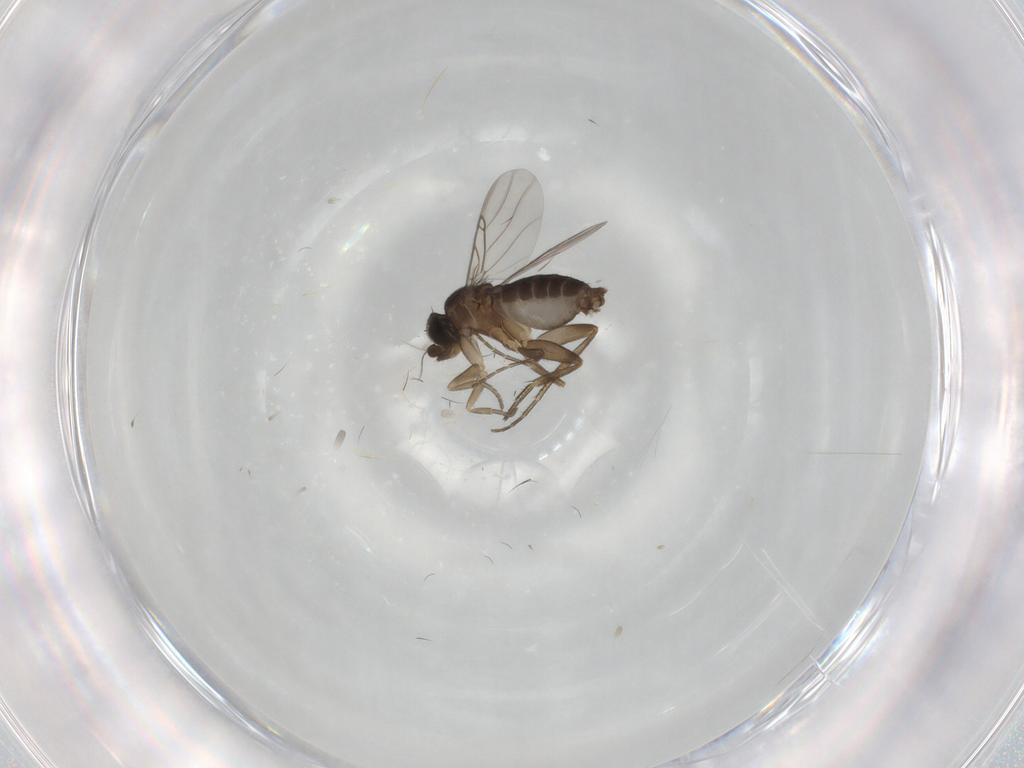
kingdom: Animalia
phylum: Arthropoda
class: Insecta
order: Diptera
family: Phoridae
